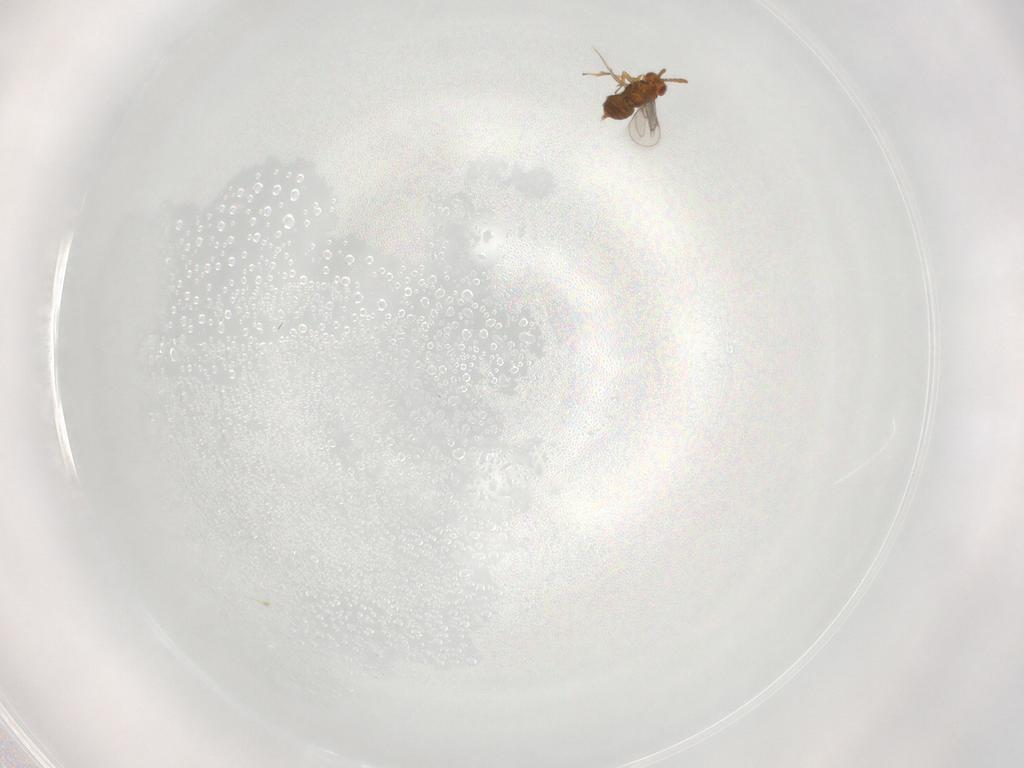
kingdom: Animalia
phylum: Arthropoda
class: Insecta
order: Hymenoptera
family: Aphelinidae
